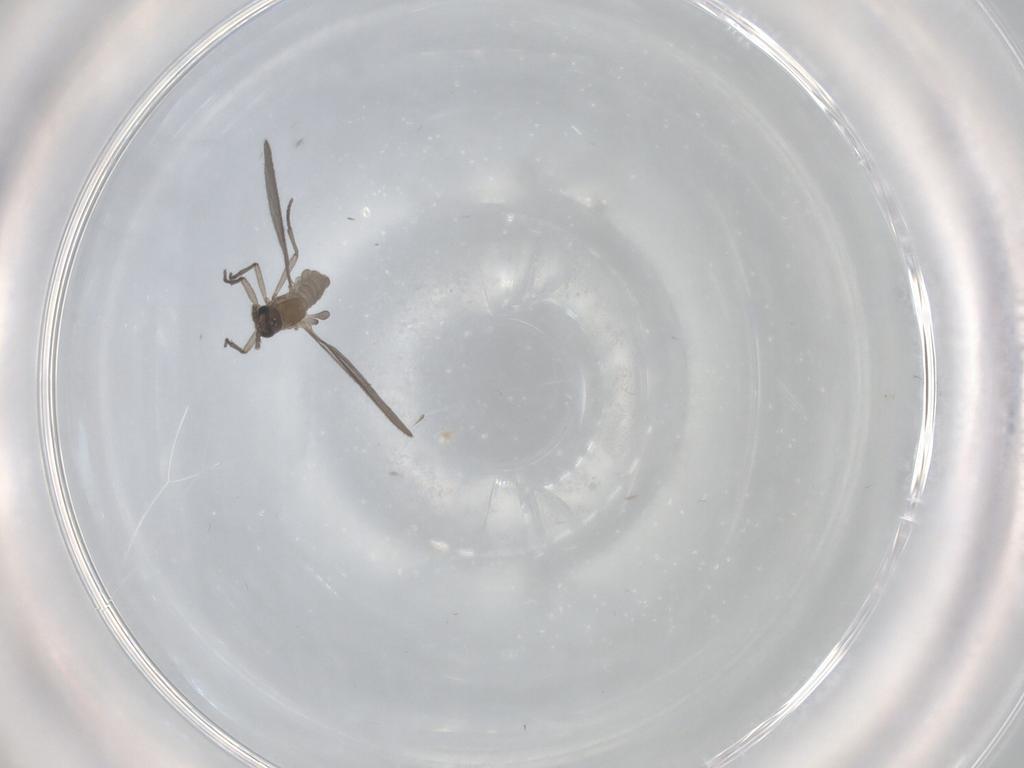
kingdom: Animalia
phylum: Arthropoda
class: Insecta
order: Diptera
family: Sciaridae
